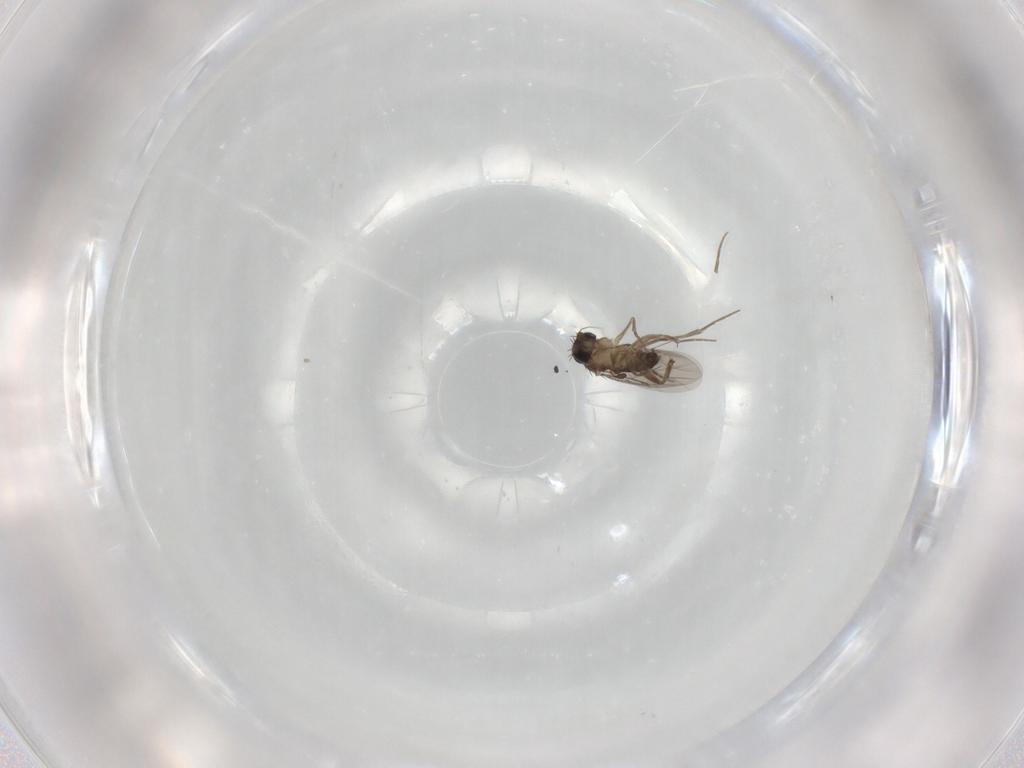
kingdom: Animalia
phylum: Arthropoda
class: Insecta
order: Diptera
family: Phoridae
